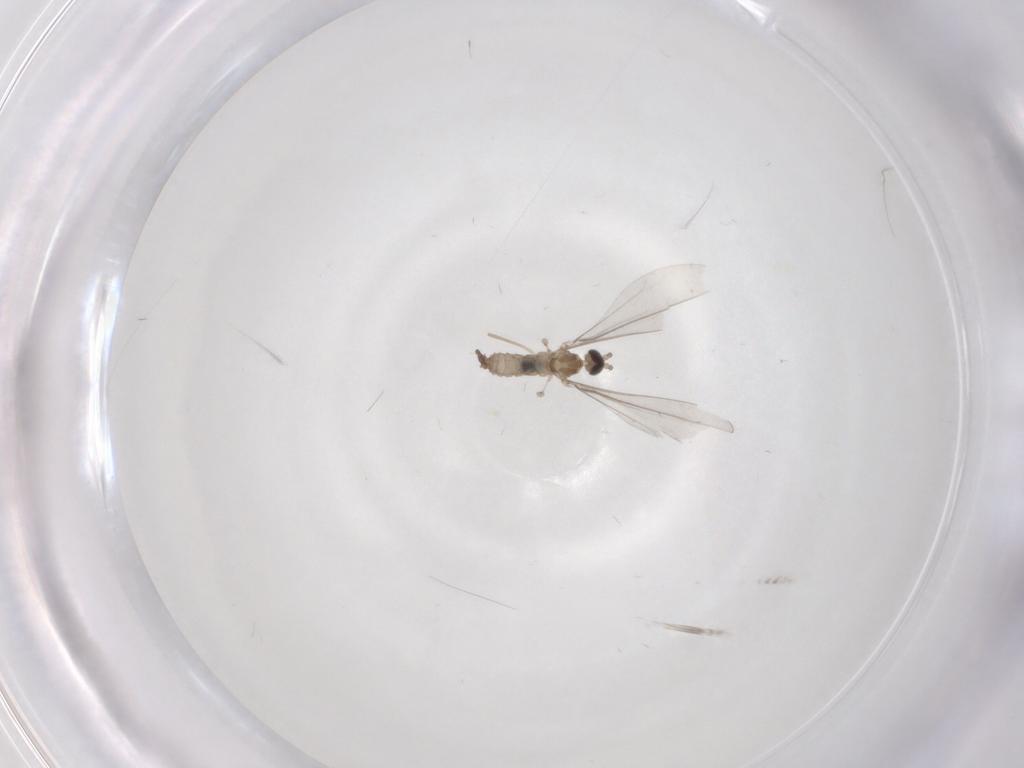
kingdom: Animalia
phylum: Arthropoda
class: Insecta
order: Diptera
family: Cecidomyiidae
